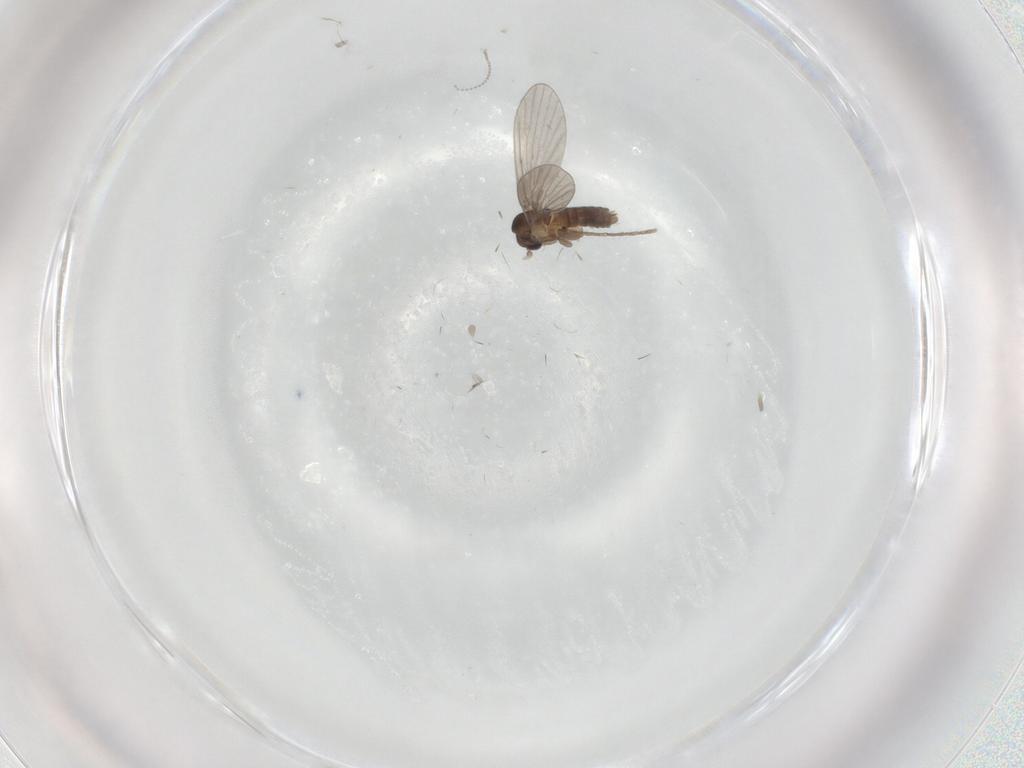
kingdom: Animalia
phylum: Arthropoda
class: Insecta
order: Diptera
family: Cecidomyiidae
